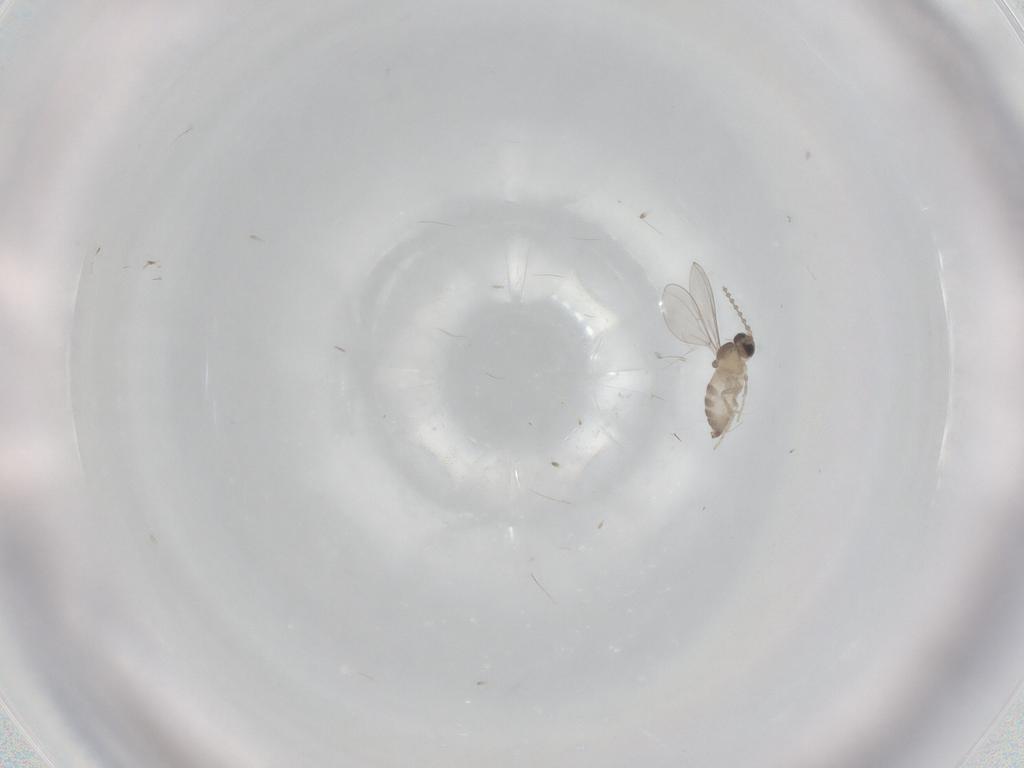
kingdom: Animalia
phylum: Arthropoda
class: Insecta
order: Diptera
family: Cecidomyiidae
